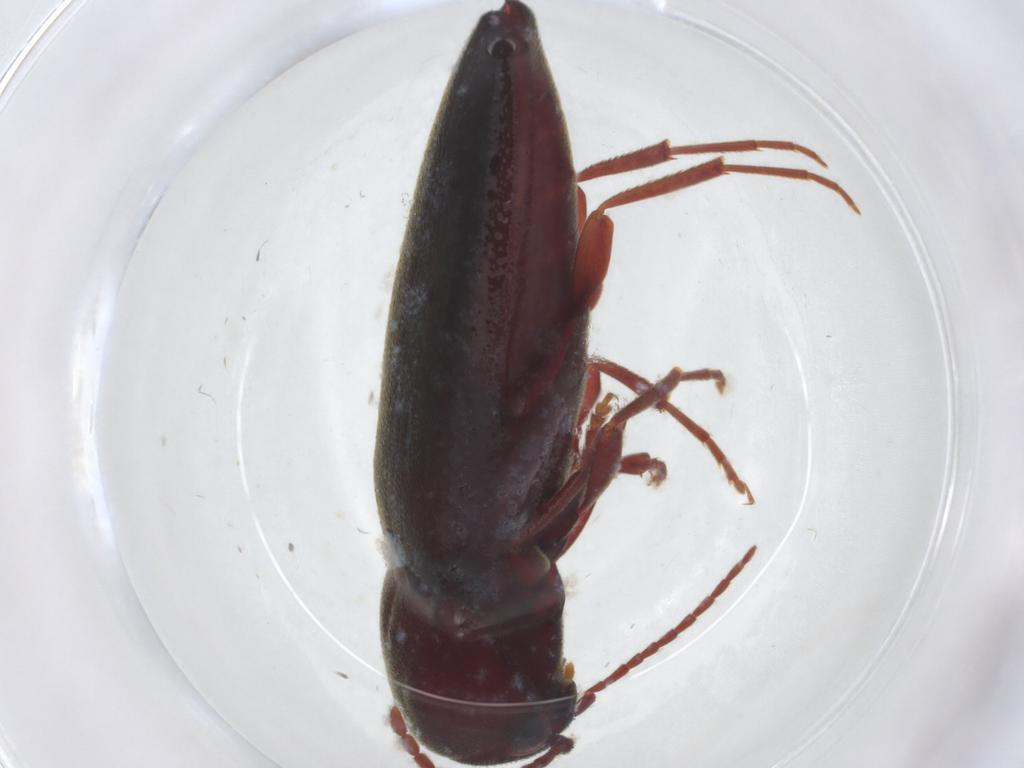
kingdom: Animalia
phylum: Arthropoda
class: Insecta
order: Coleoptera
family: Eucnemidae
